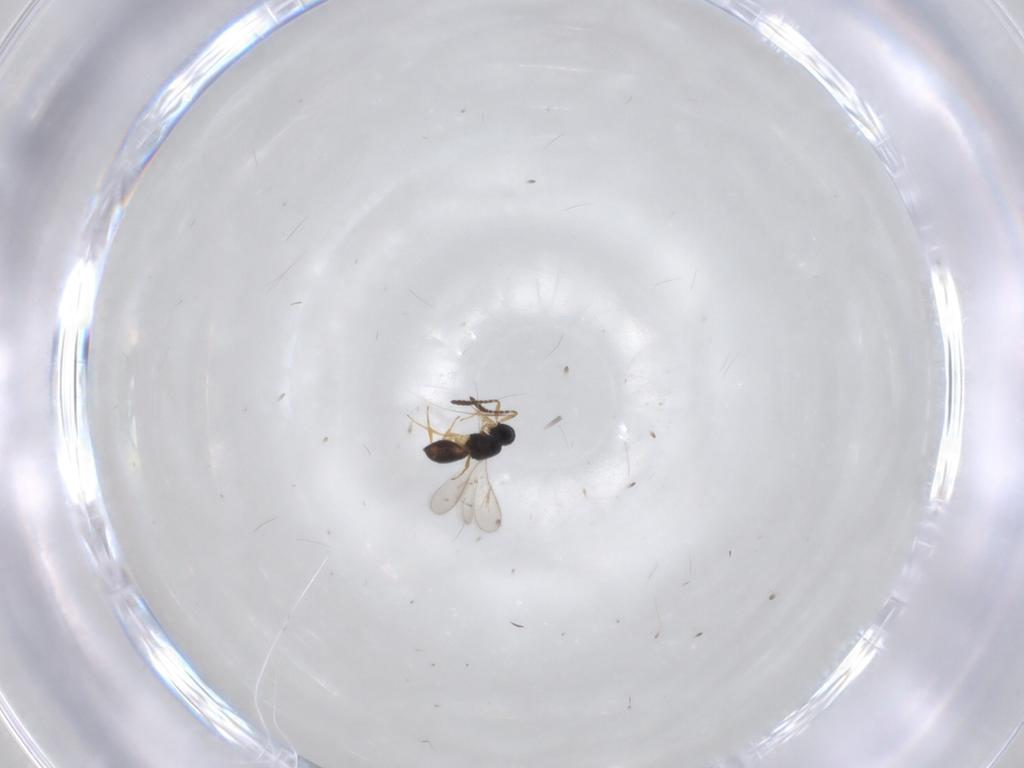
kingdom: Animalia
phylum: Arthropoda
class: Insecta
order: Hymenoptera
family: Scelionidae
